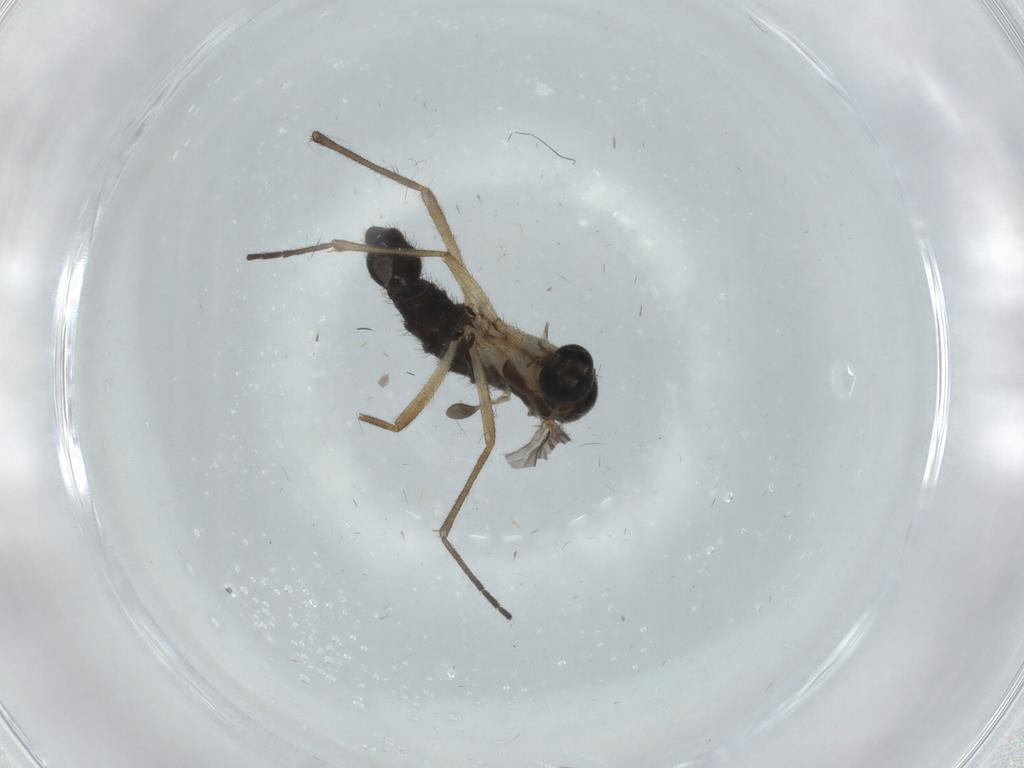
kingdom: Animalia
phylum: Arthropoda
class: Insecta
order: Diptera
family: Sciaridae
